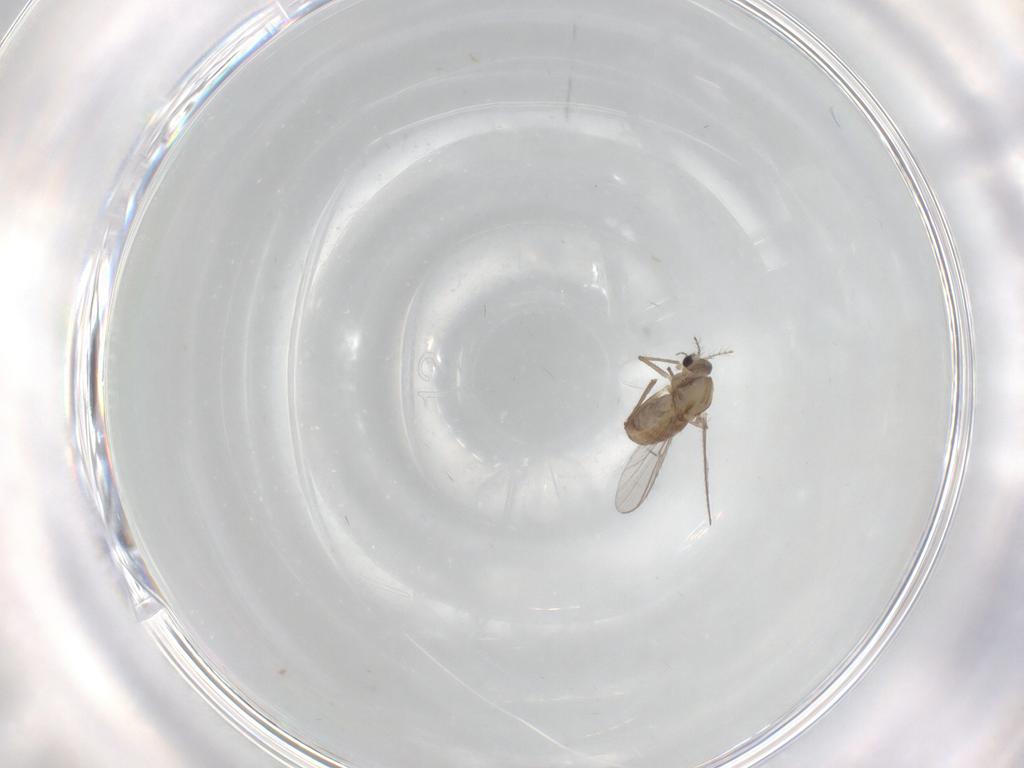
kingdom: Animalia
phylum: Arthropoda
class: Insecta
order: Diptera
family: Chironomidae
